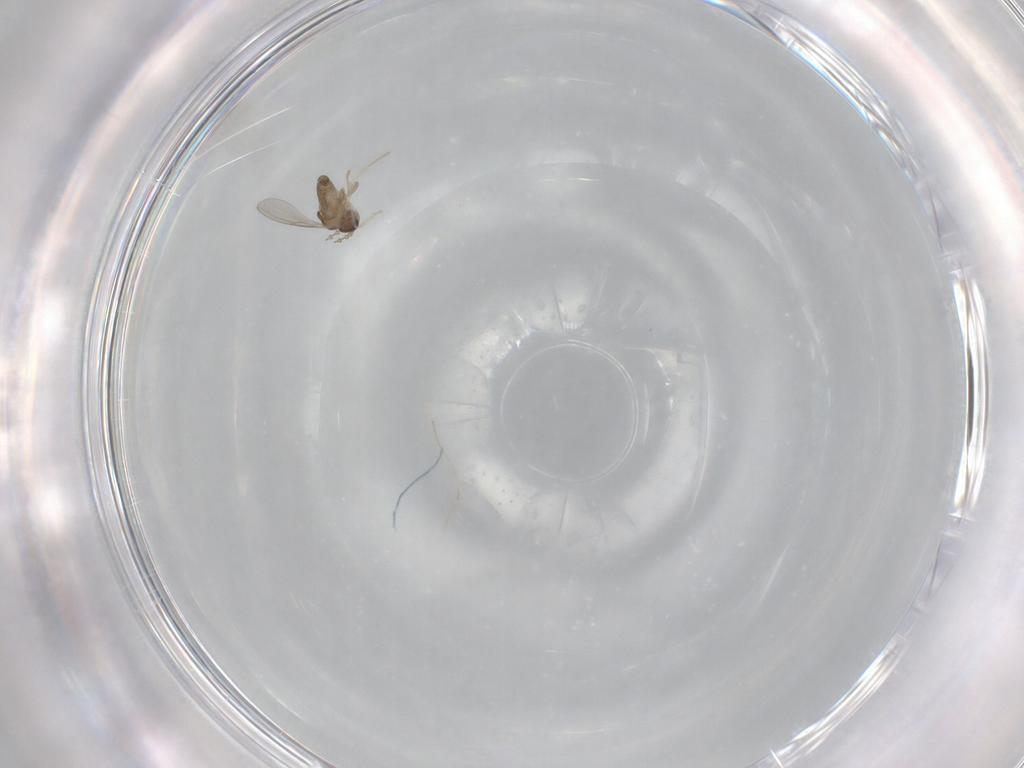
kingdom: Animalia
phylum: Arthropoda
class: Insecta
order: Diptera
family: Cecidomyiidae
